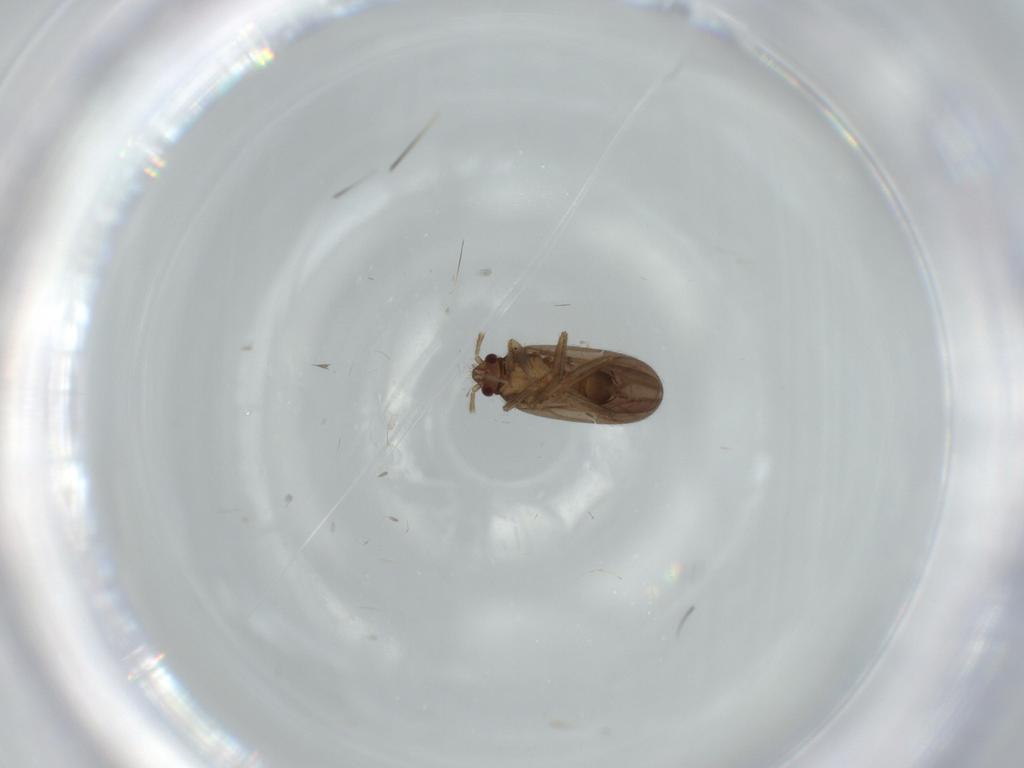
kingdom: Animalia
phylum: Arthropoda
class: Insecta
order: Hemiptera
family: Ceratocombidae
